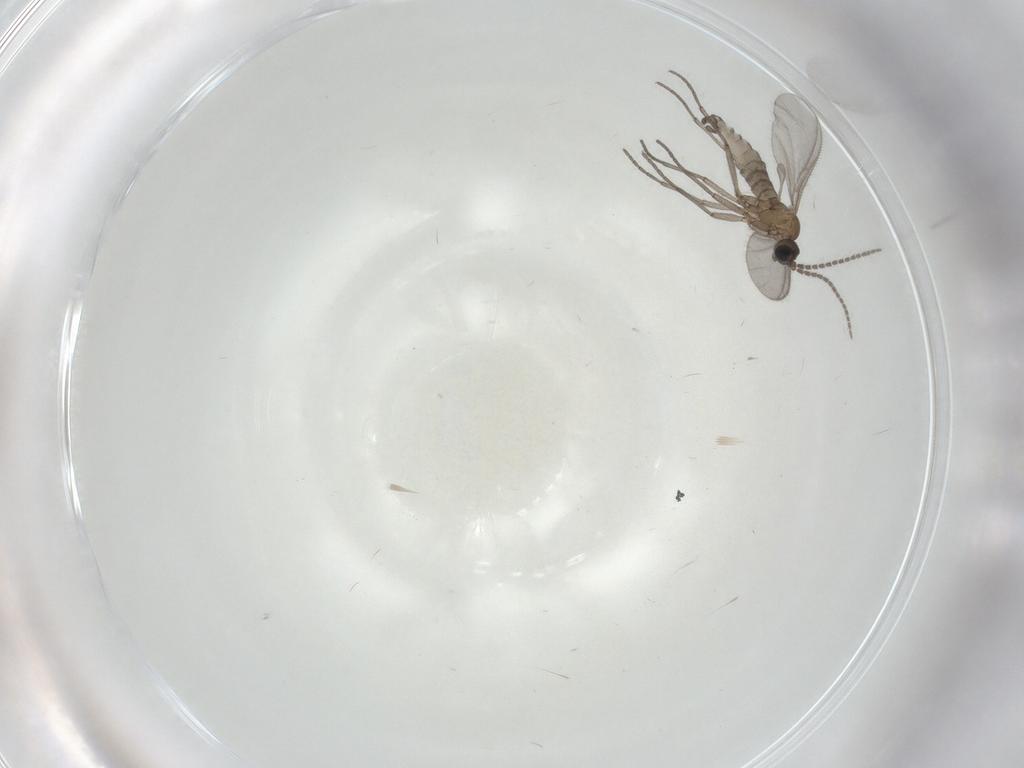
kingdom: Animalia
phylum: Arthropoda
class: Insecta
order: Diptera
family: Sciaridae
